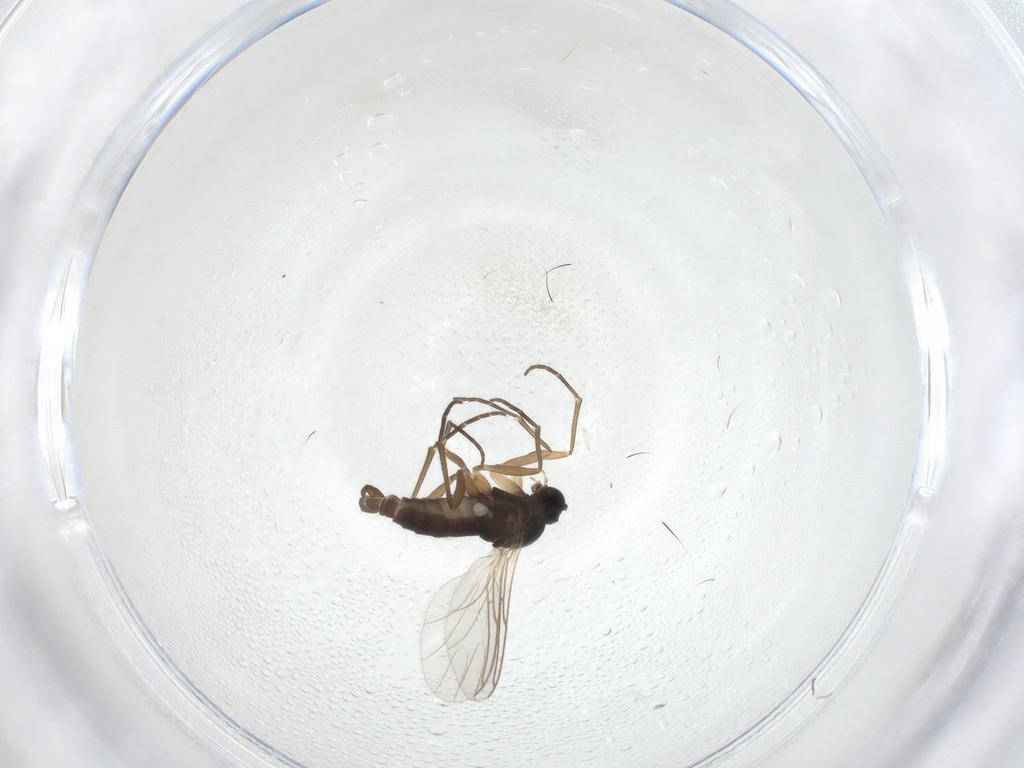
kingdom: Animalia
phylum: Arthropoda
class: Insecta
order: Diptera
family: Sciaridae
